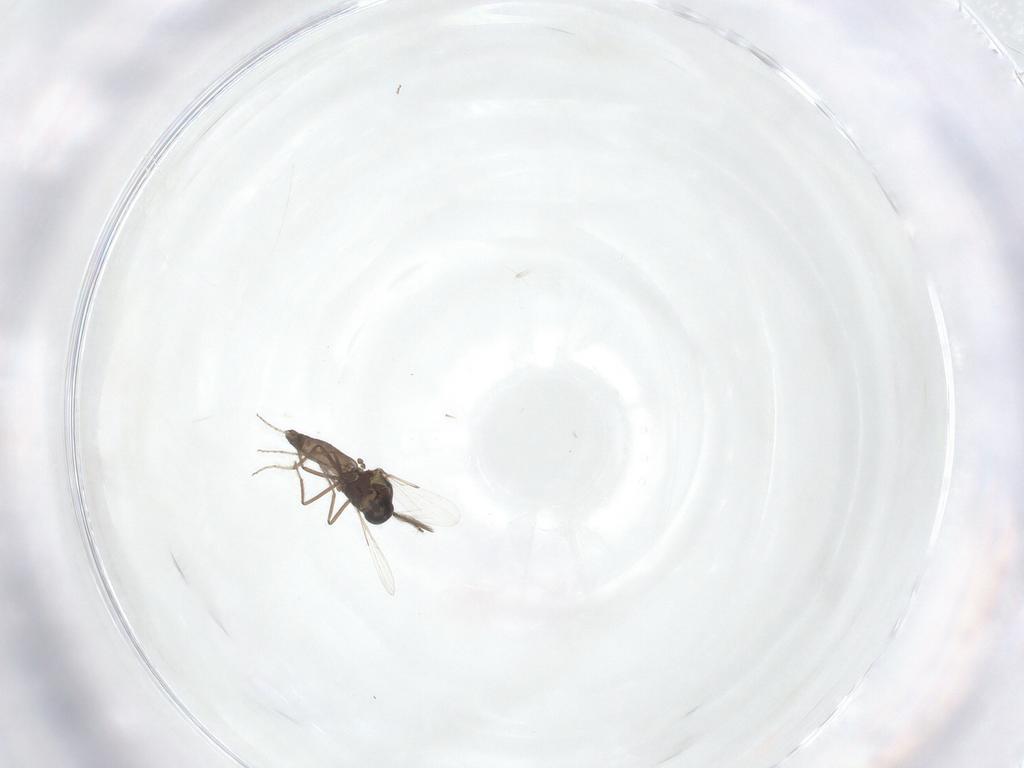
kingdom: Animalia
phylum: Arthropoda
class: Insecta
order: Diptera
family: Ceratopogonidae
